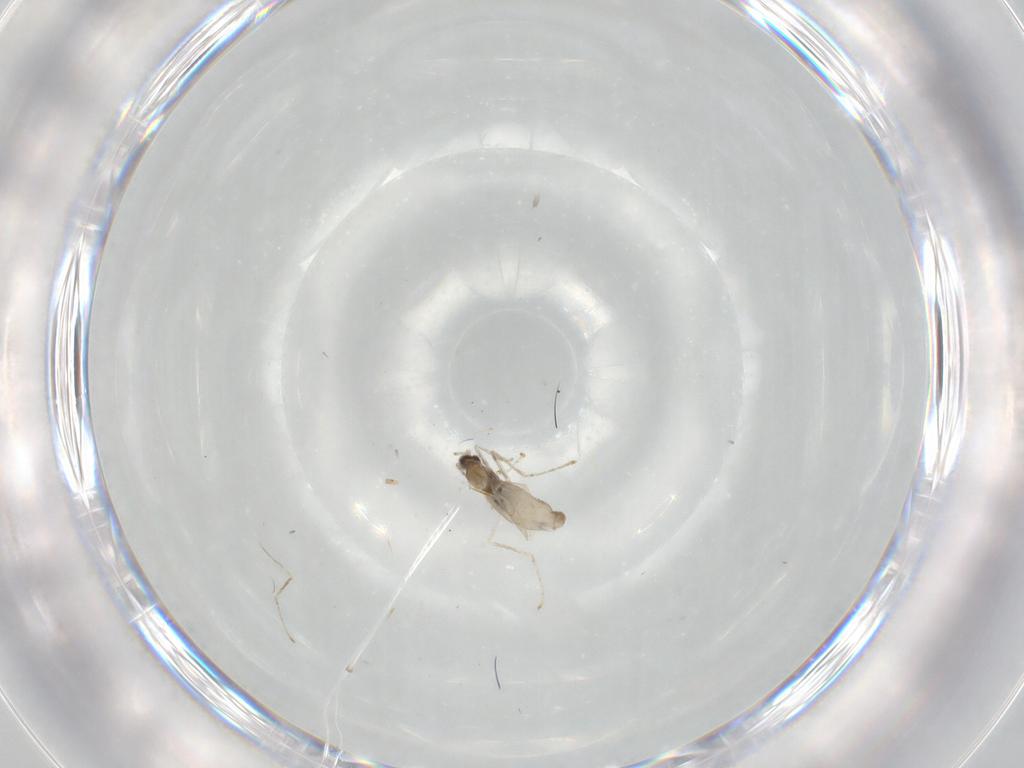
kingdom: Animalia
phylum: Arthropoda
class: Insecta
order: Diptera
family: Cecidomyiidae
